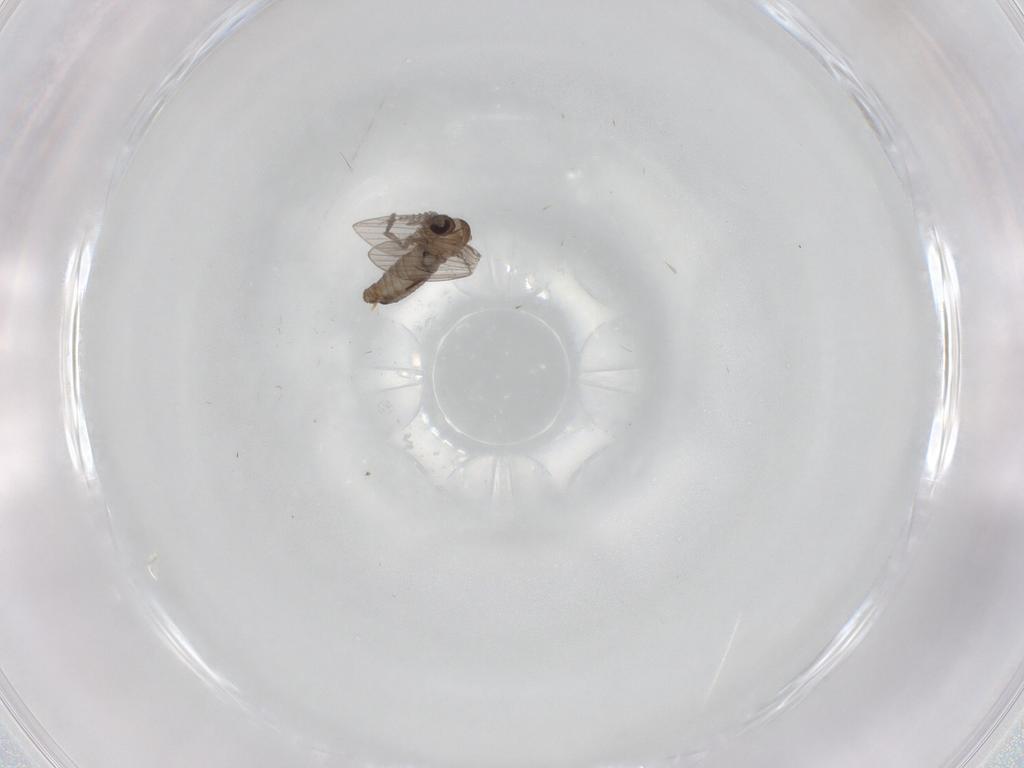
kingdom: Animalia
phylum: Arthropoda
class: Insecta
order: Diptera
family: Psychodidae
